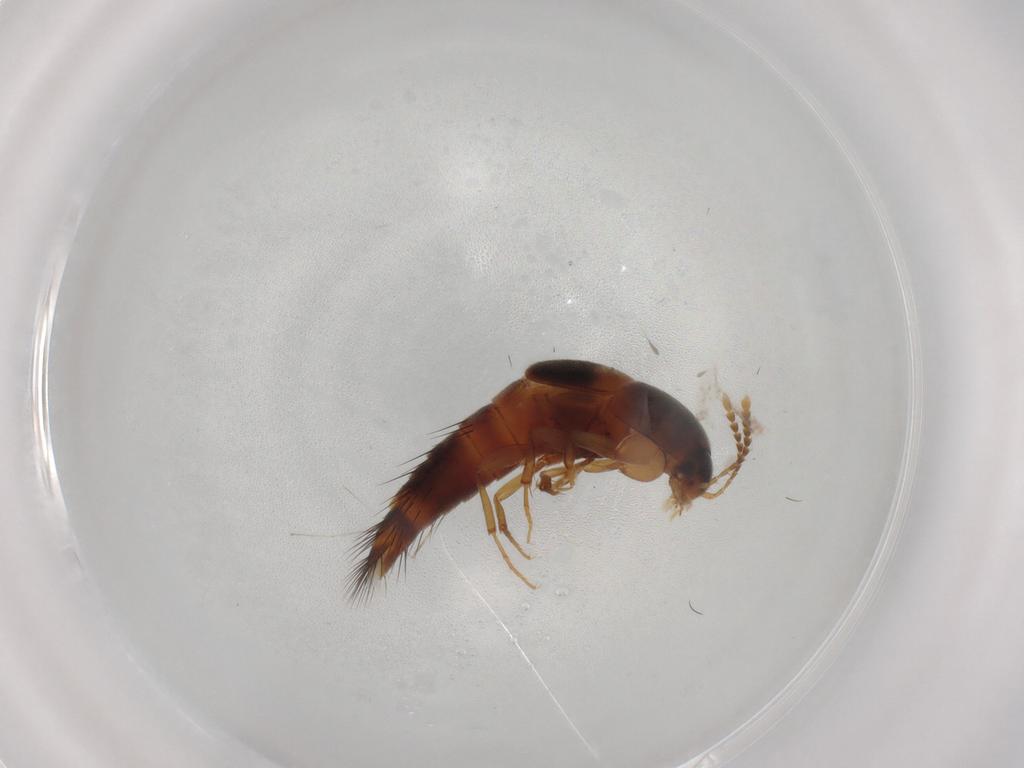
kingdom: Animalia
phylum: Arthropoda
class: Insecta
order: Coleoptera
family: Staphylinidae
